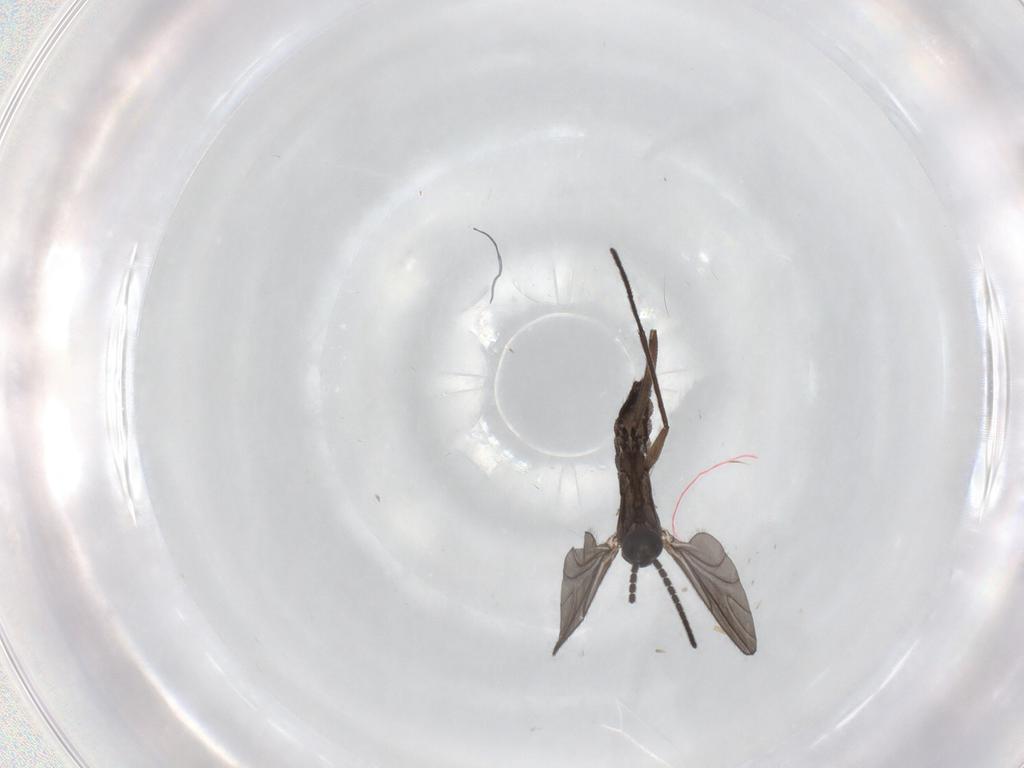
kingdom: Animalia
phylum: Arthropoda
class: Insecta
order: Diptera
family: Sciaridae
